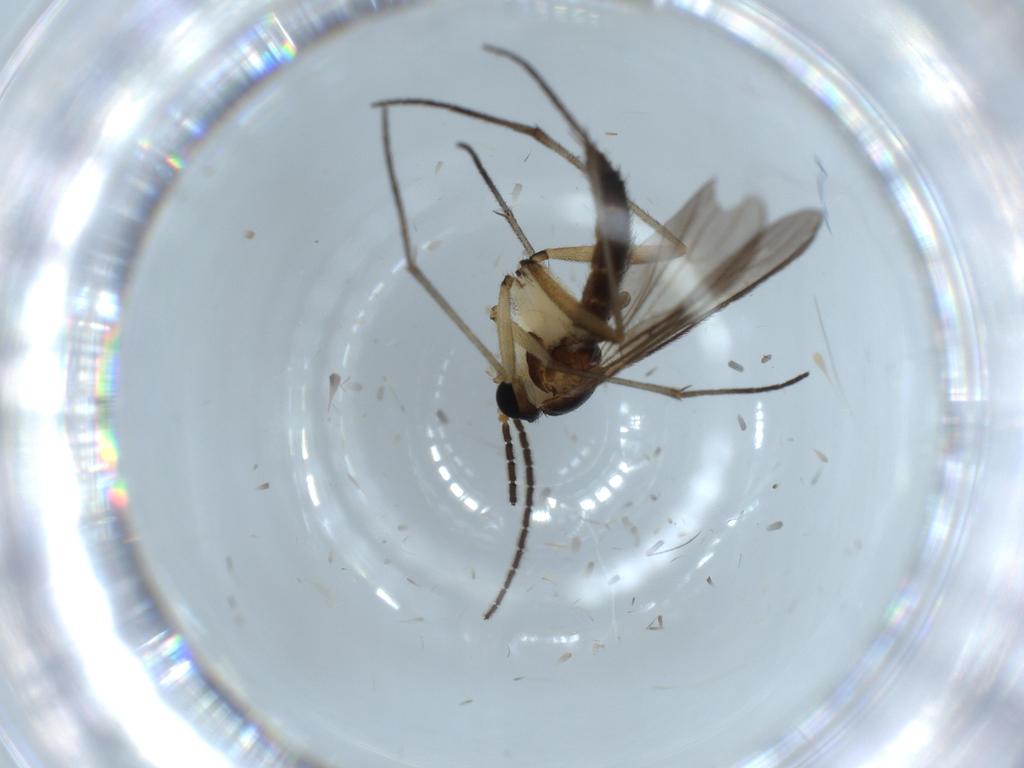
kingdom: Animalia
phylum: Arthropoda
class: Insecta
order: Diptera
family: Sciaridae
